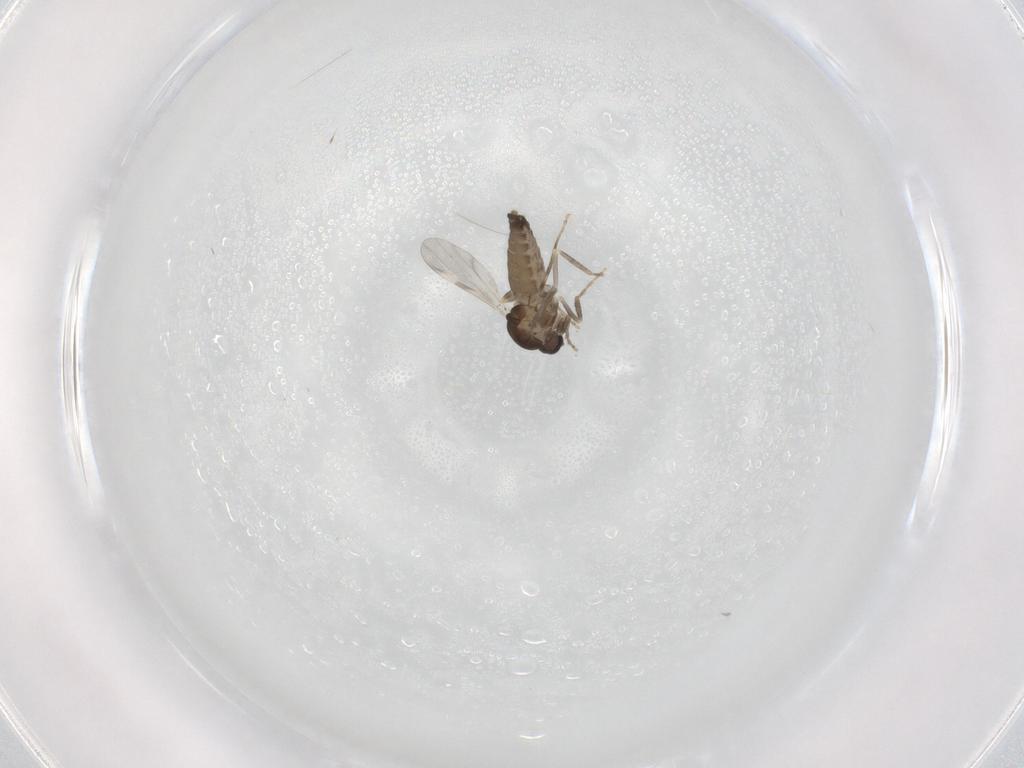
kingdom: Animalia
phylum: Arthropoda
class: Insecta
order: Diptera
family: Ceratopogonidae
